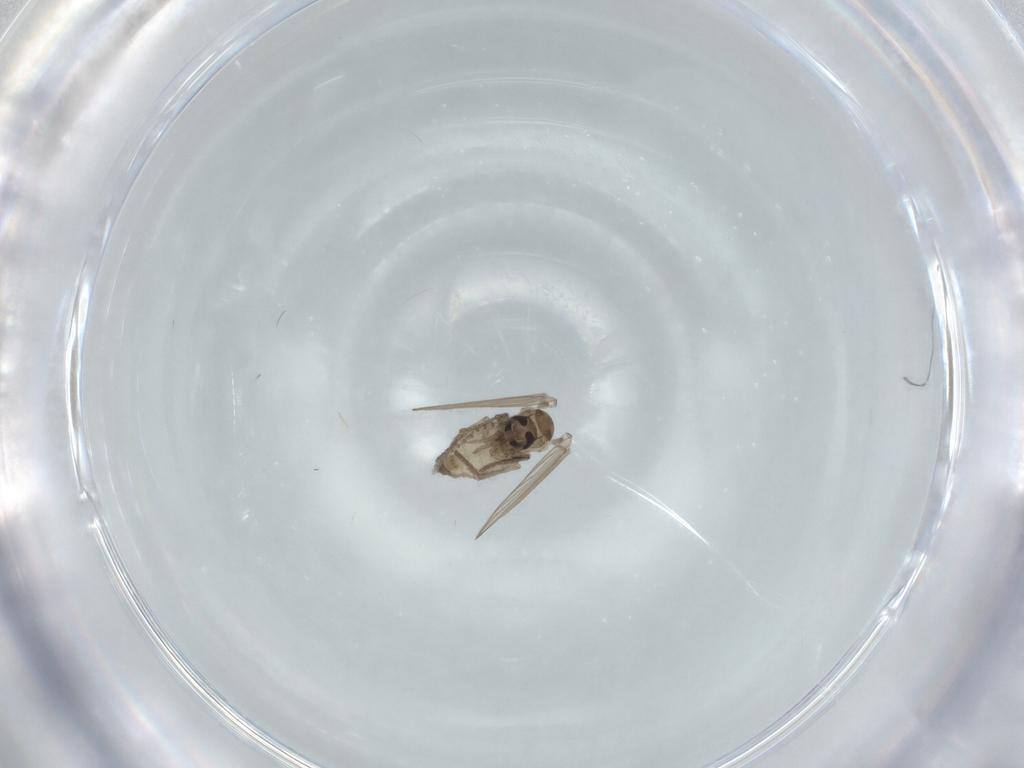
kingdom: Animalia
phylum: Arthropoda
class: Insecta
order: Diptera
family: Psychodidae
